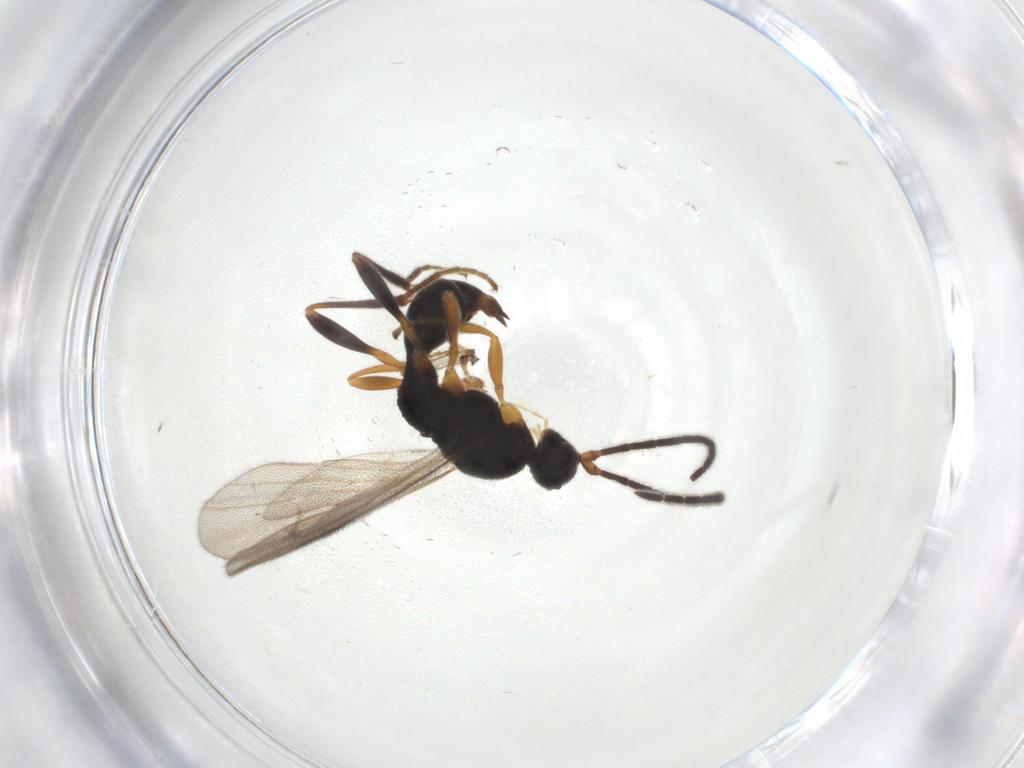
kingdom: Animalia
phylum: Arthropoda
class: Insecta
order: Hymenoptera
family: Proctotrupidae
